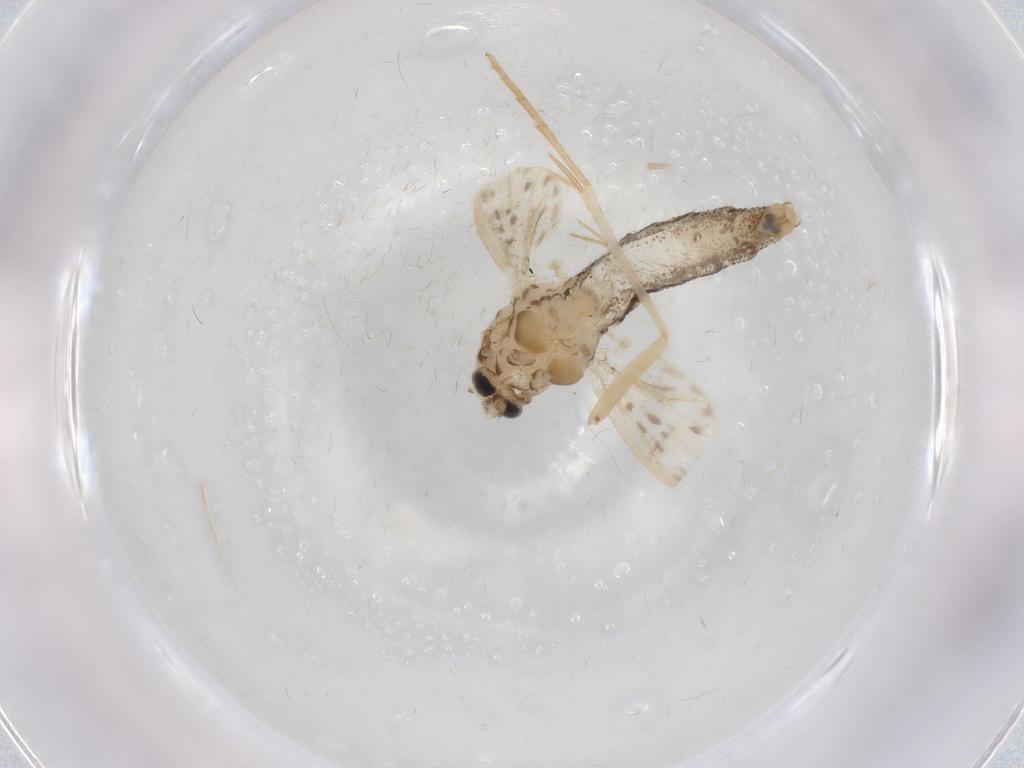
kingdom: Animalia
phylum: Arthropoda
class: Insecta
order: Diptera
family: Chaoboridae
